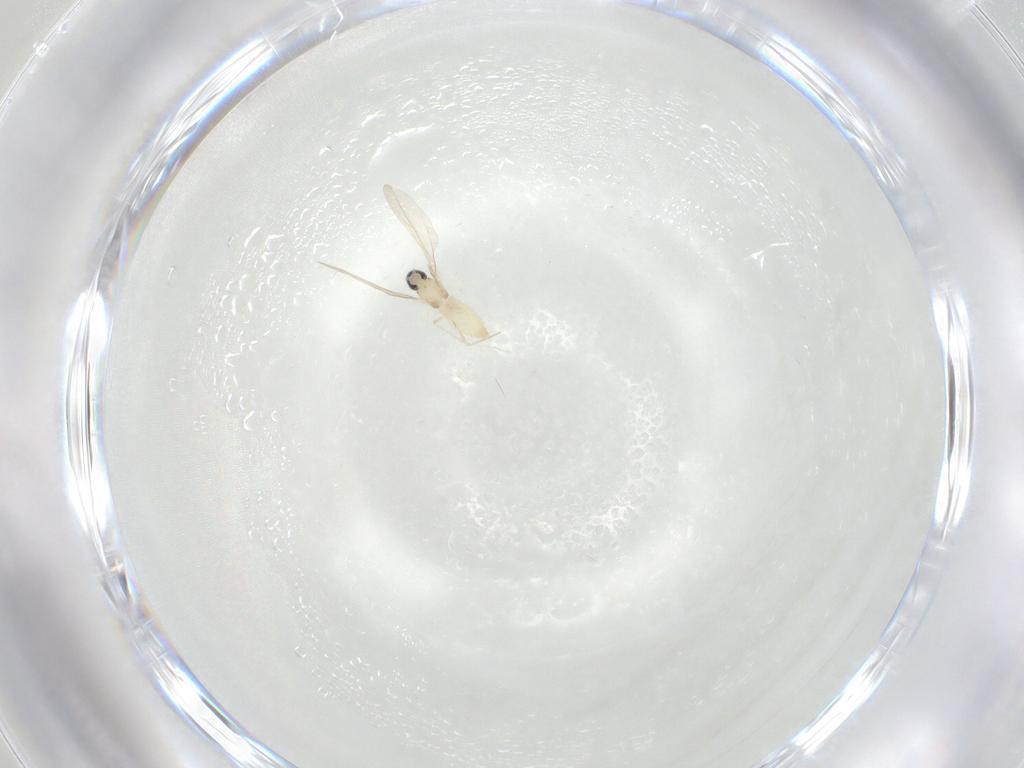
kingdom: Animalia
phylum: Arthropoda
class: Insecta
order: Diptera
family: Cecidomyiidae
